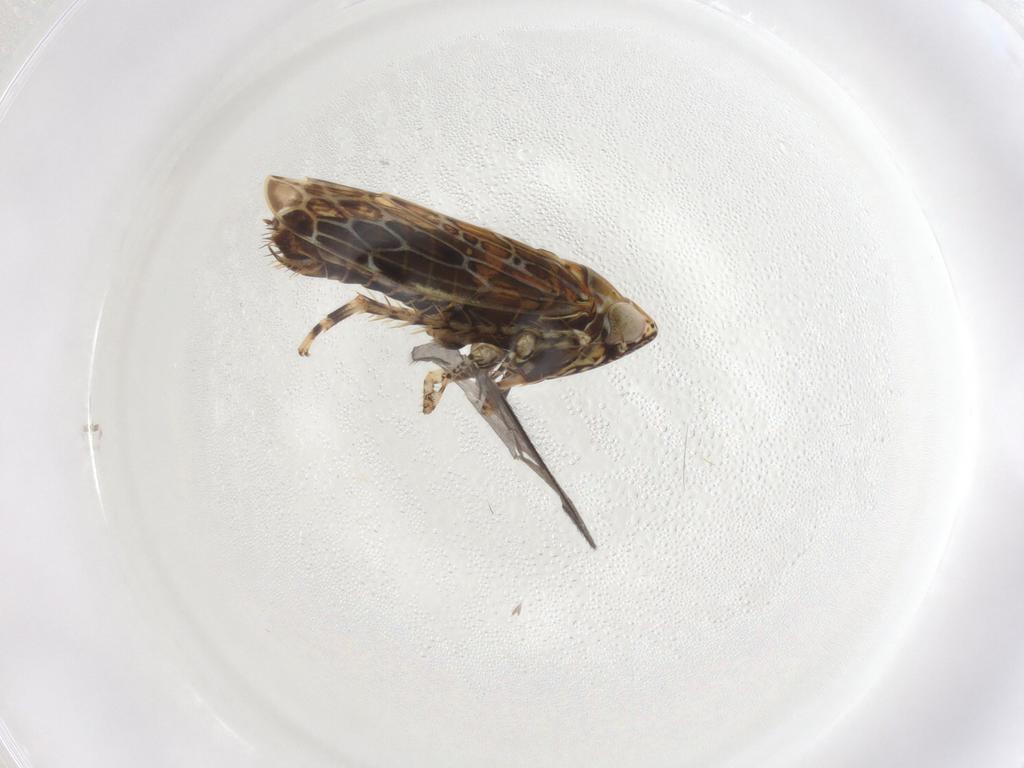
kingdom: Animalia
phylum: Arthropoda
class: Insecta
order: Hemiptera
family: Cicadellidae
